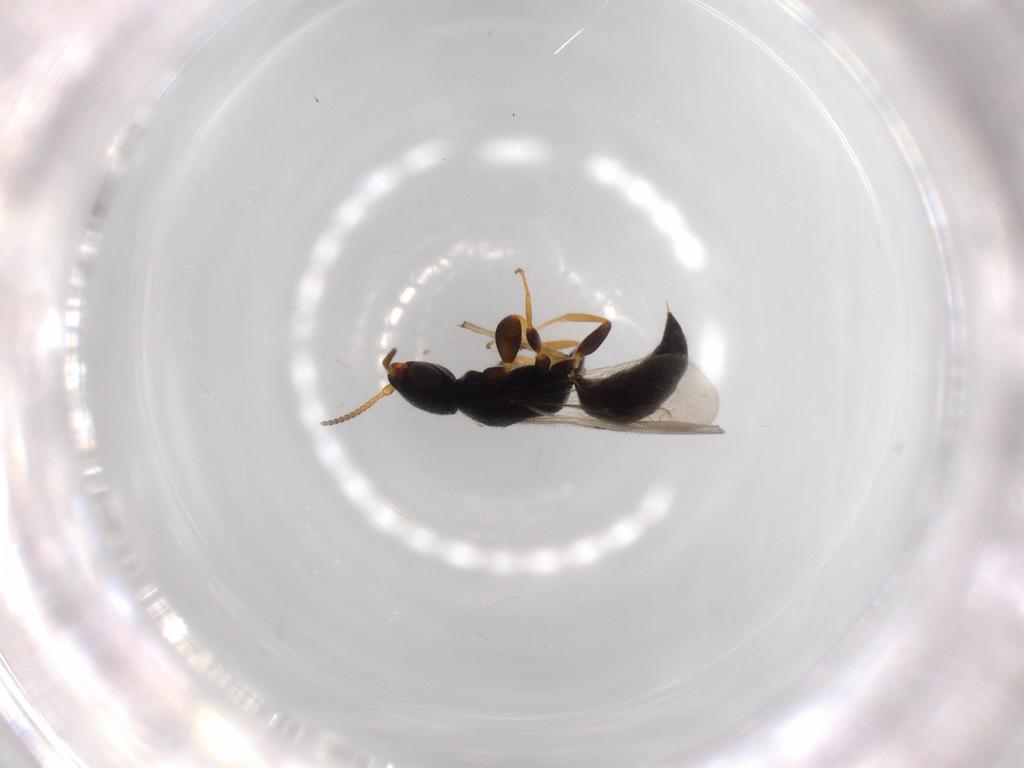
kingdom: Animalia
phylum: Arthropoda
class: Insecta
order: Hymenoptera
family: Bethylidae
